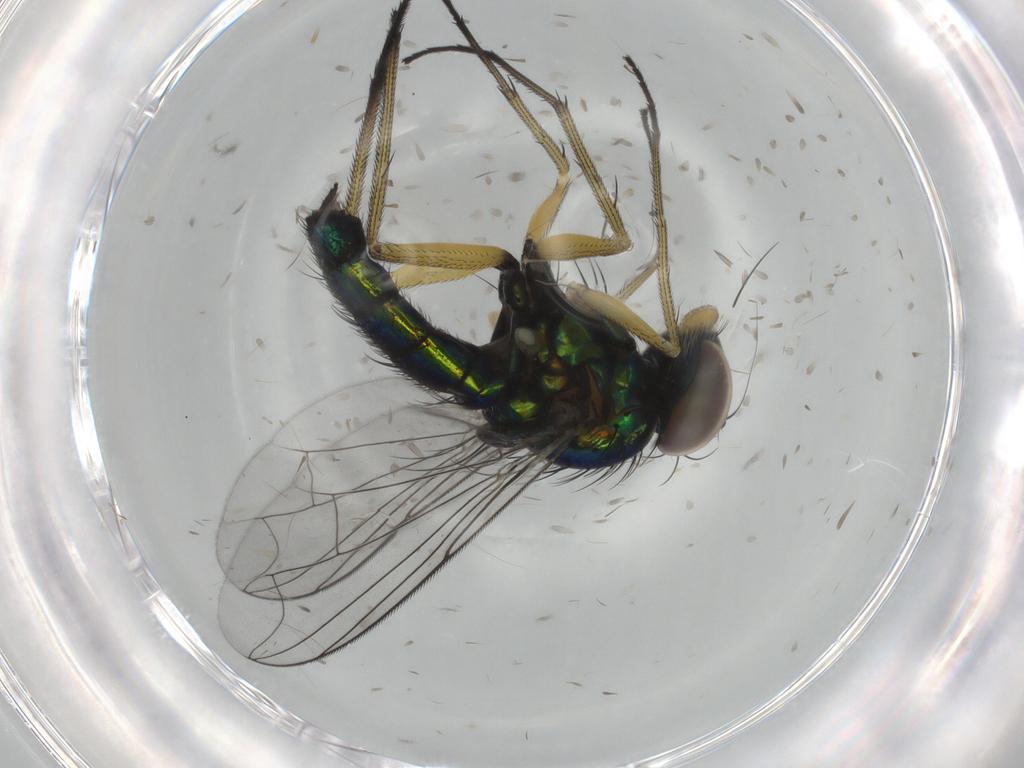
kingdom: Animalia
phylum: Arthropoda
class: Insecta
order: Diptera
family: Dolichopodidae
